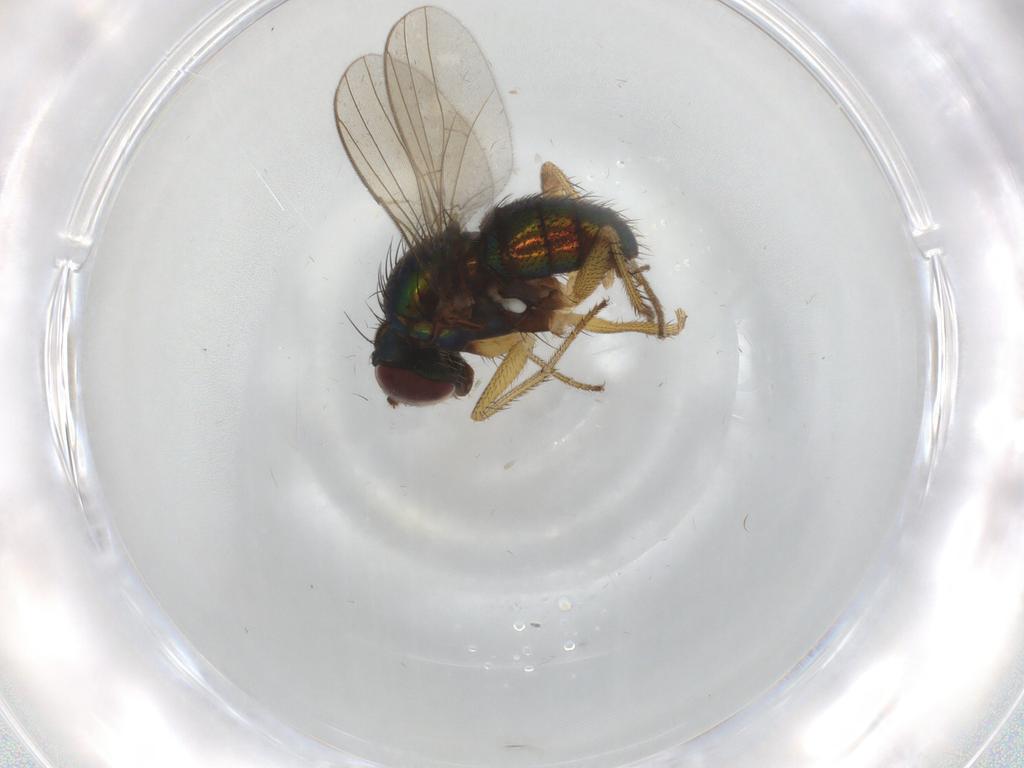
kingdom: Animalia
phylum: Arthropoda
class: Insecta
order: Diptera
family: Dolichopodidae
